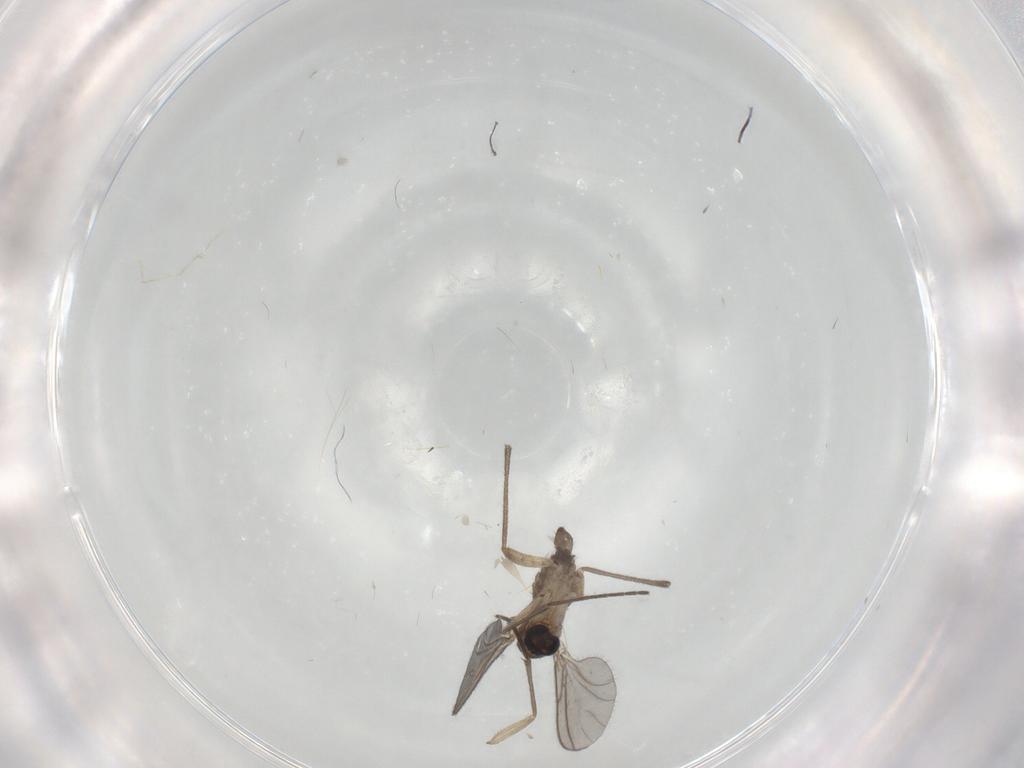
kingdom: Animalia
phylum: Arthropoda
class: Insecta
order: Diptera
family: Chironomidae
